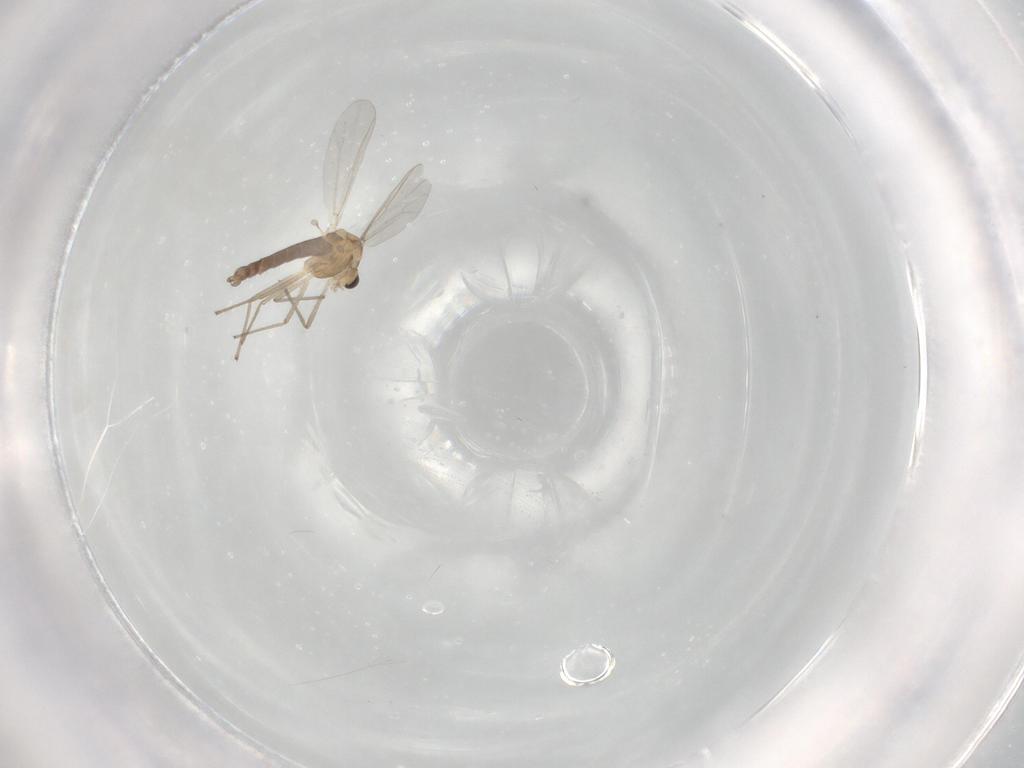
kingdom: Animalia
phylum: Arthropoda
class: Insecta
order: Diptera
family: Chironomidae
